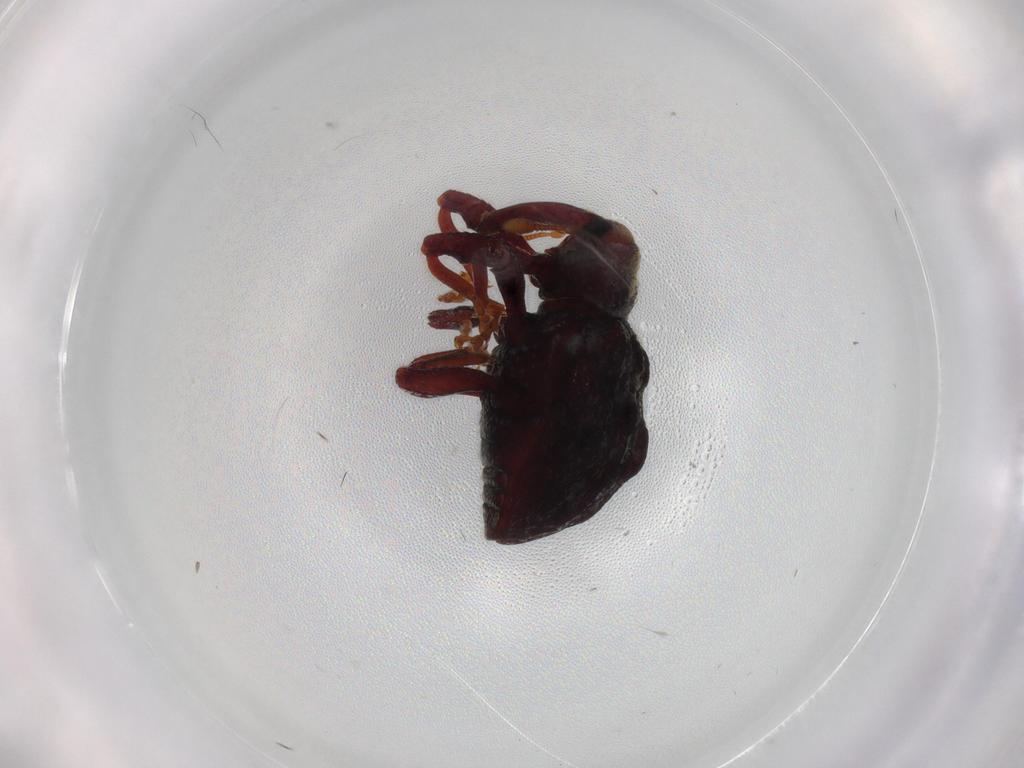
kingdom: Animalia
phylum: Arthropoda
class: Insecta
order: Coleoptera
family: Curculionidae
